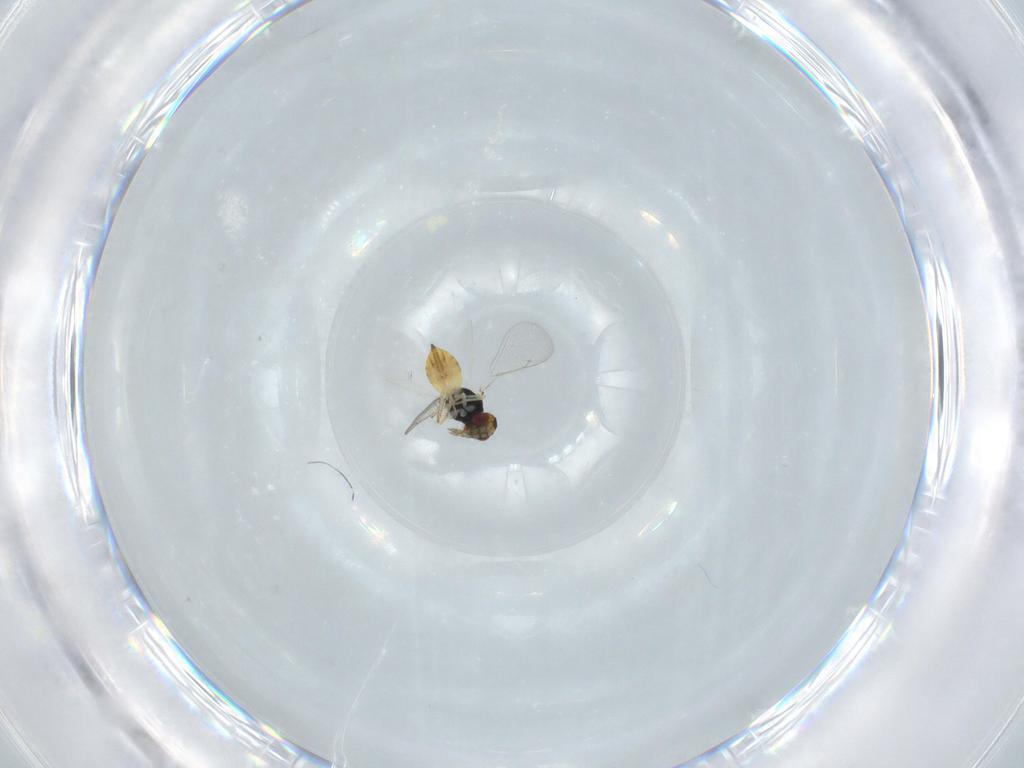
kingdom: Animalia
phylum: Arthropoda
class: Insecta
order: Hymenoptera
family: Eulophidae
